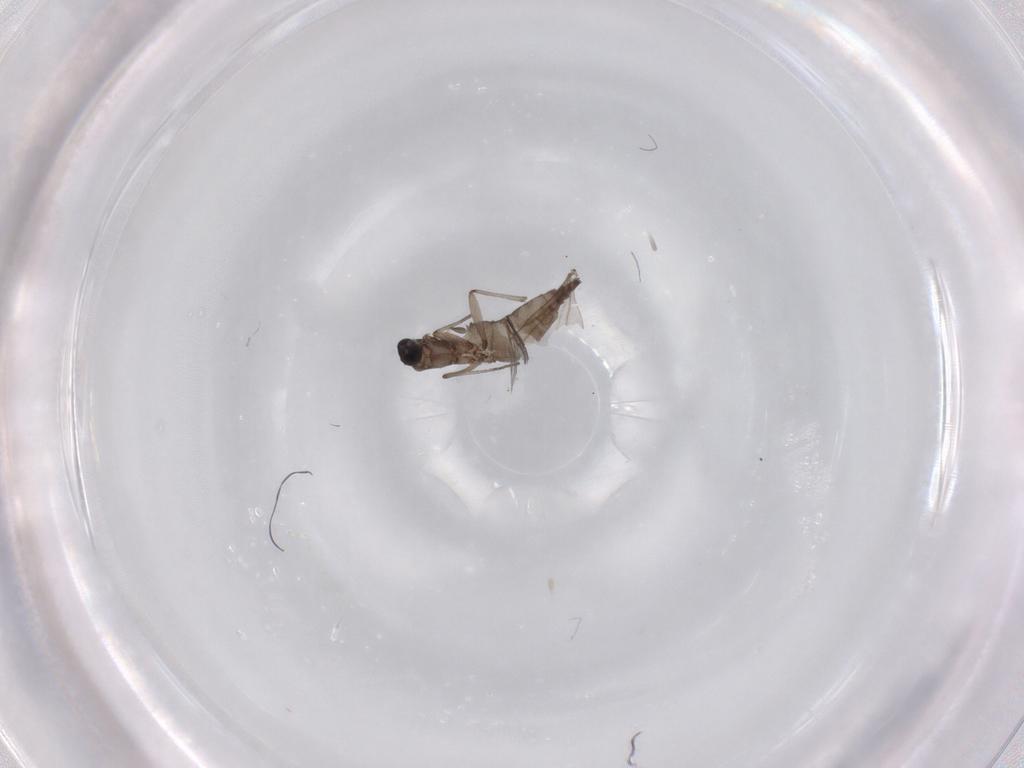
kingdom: Animalia
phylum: Arthropoda
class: Insecta
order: Diptera
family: Sciaridae
